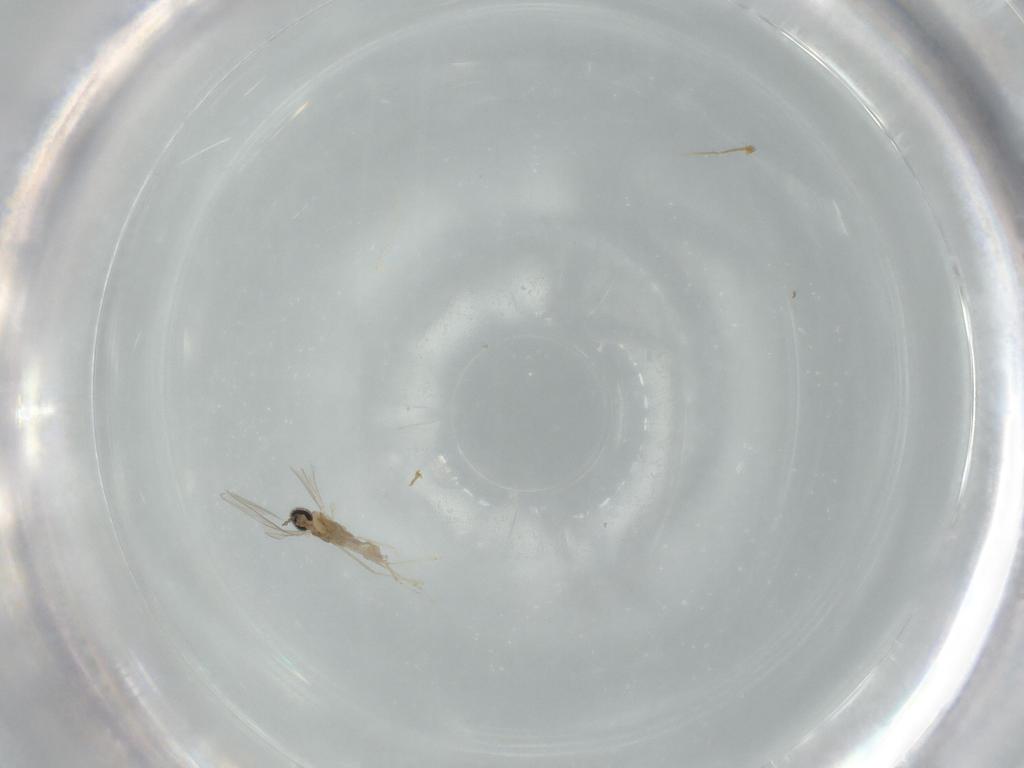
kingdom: Animalia
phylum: Arthropoda
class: Insecta
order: Diptera
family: Cecidomyiidae
